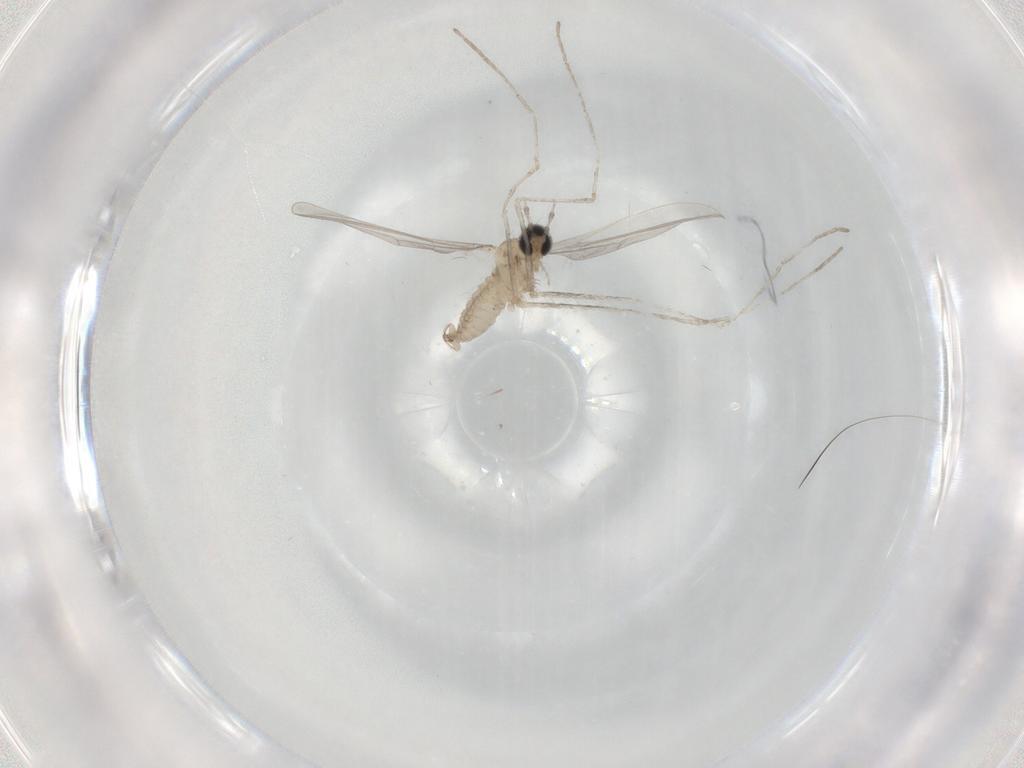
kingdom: Animalia
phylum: Arthropoda
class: Insecta
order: Diptera
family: Cecidomyiidae
